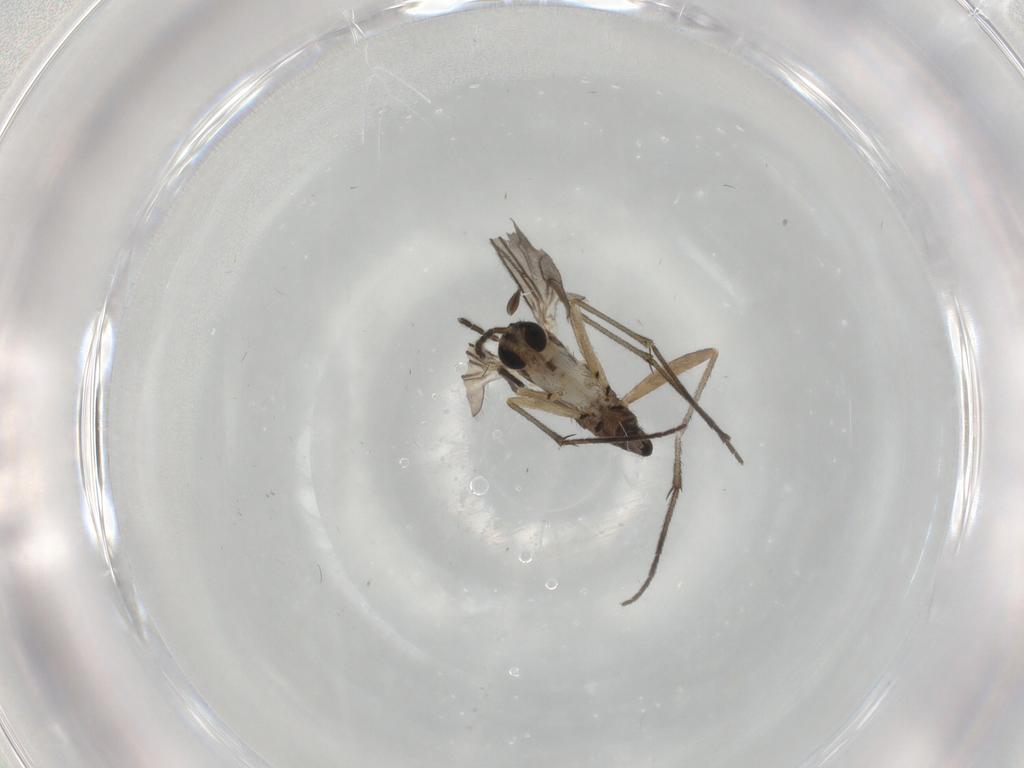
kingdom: Animalia
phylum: Arthropoda
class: Insecta
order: Diptera
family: Sciaridae
